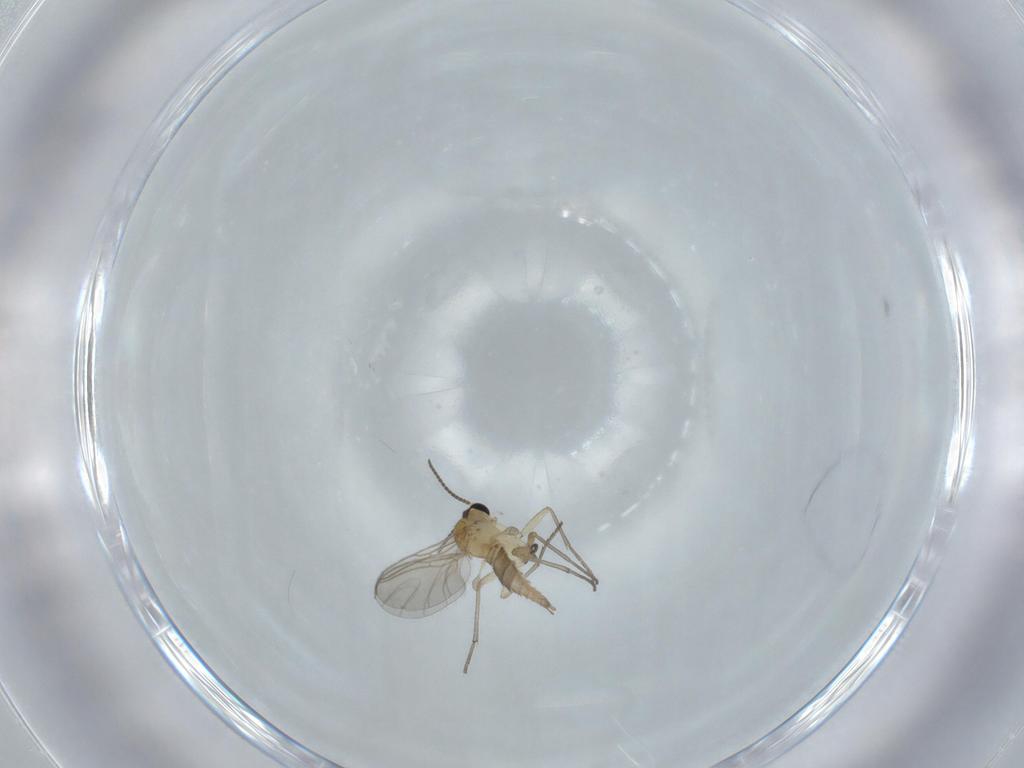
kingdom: Animalia
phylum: Arthropoda
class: Insecta
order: Diptera
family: Sciaridae
